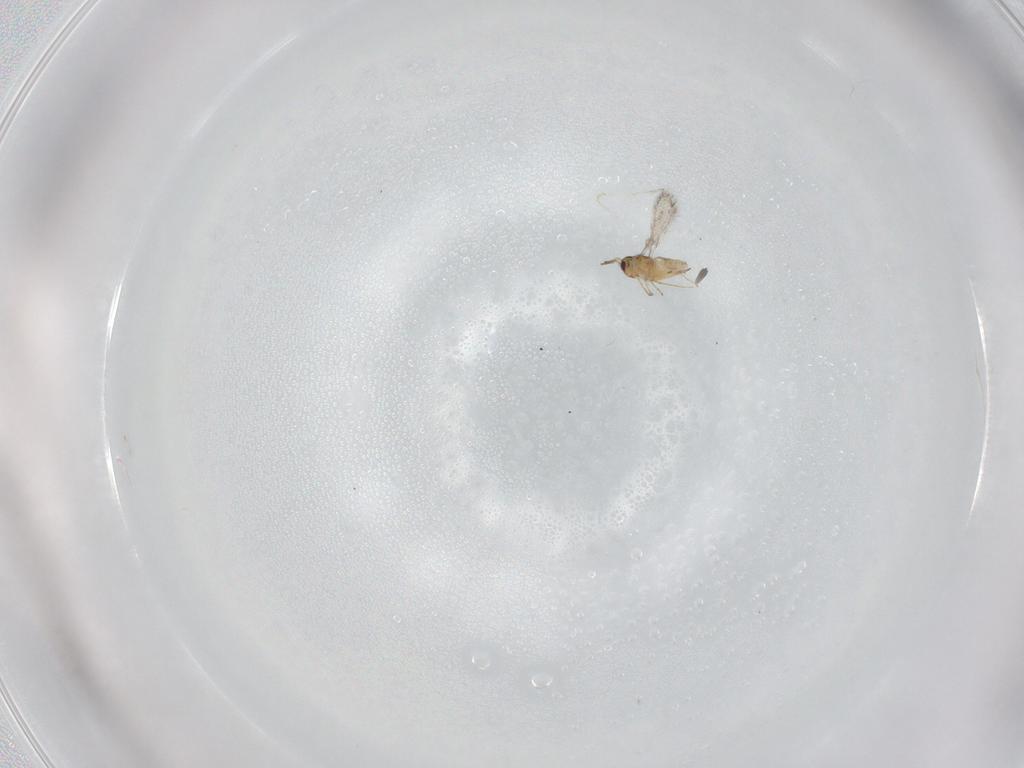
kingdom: Animalia
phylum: Arthropoda
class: Insecta
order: Hymenoptera
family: Mymaridae
